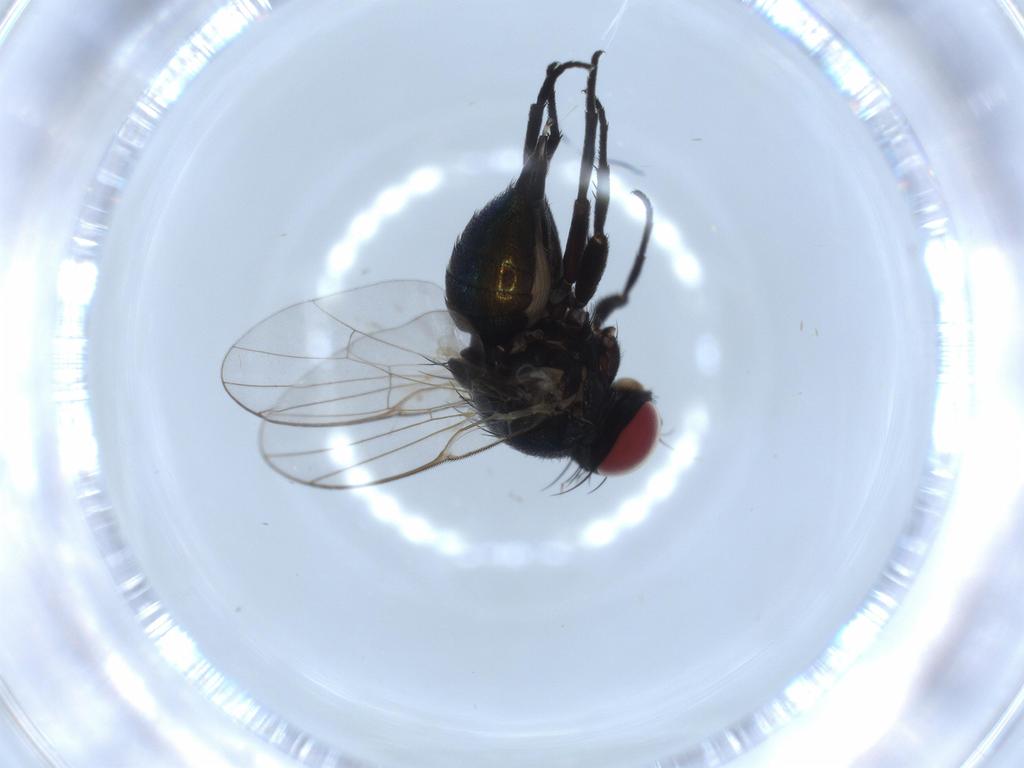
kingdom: Animalia
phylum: Arthropoda
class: Insecta
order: Diptera
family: Agromyzidae
